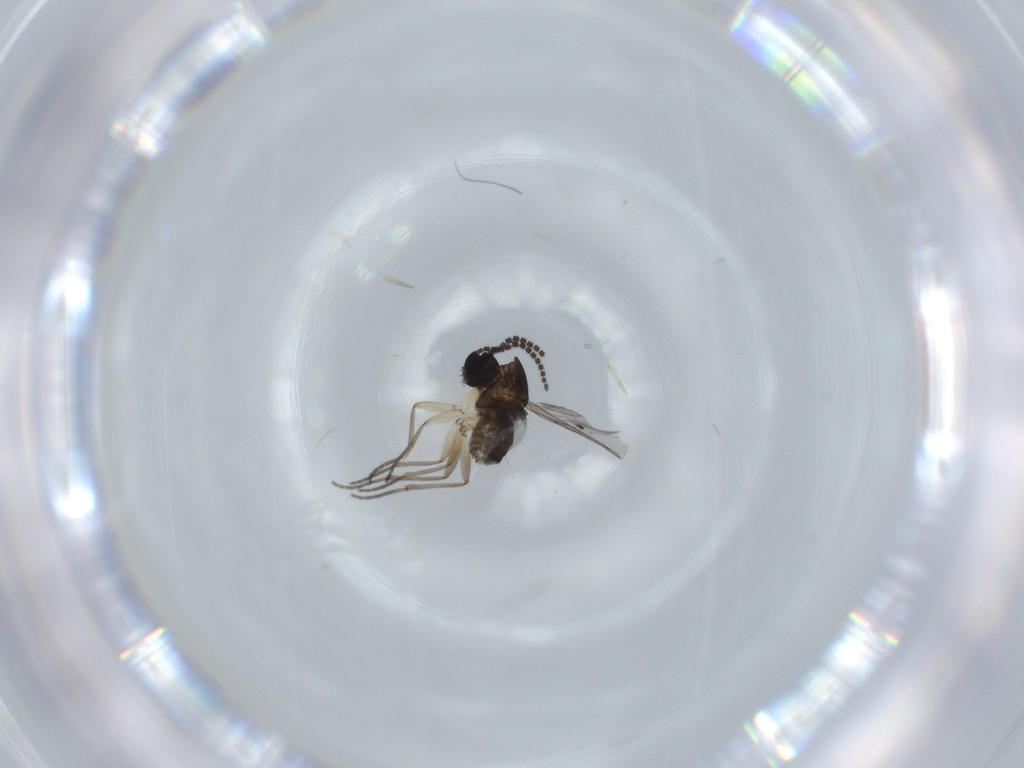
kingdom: Animalia
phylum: Arthropoda
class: Insecta
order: Diptera
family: Sciaridae
